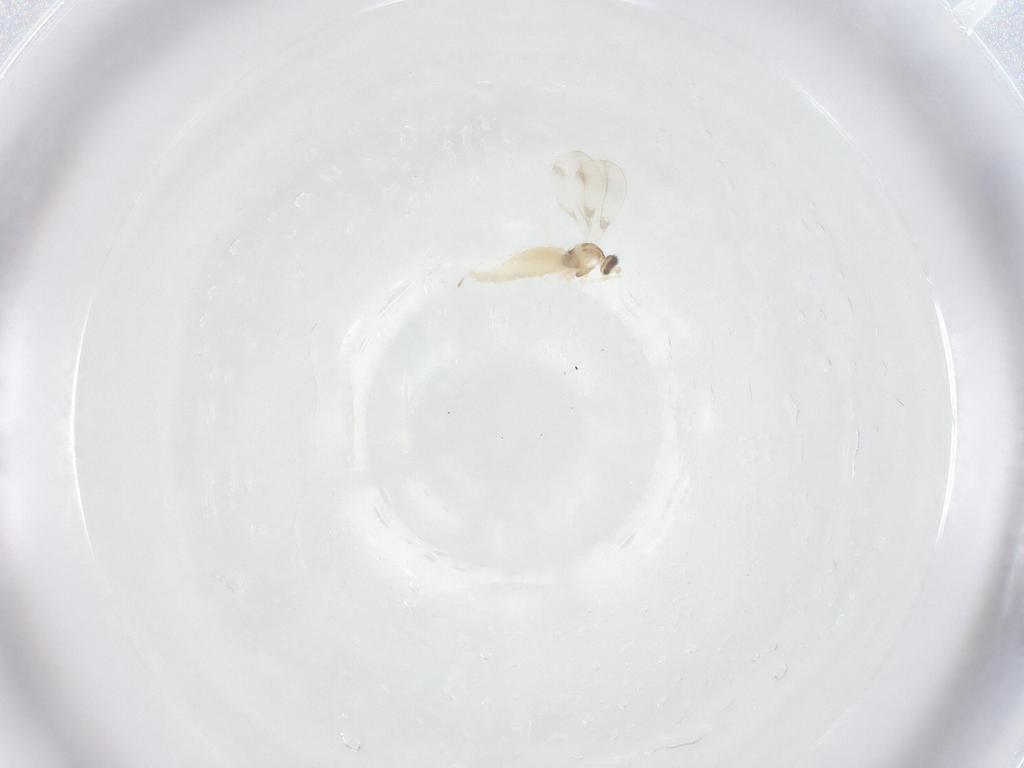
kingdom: Animalia
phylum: Arthropoda
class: Insecta
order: Diptera
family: Cecidomyiidae
